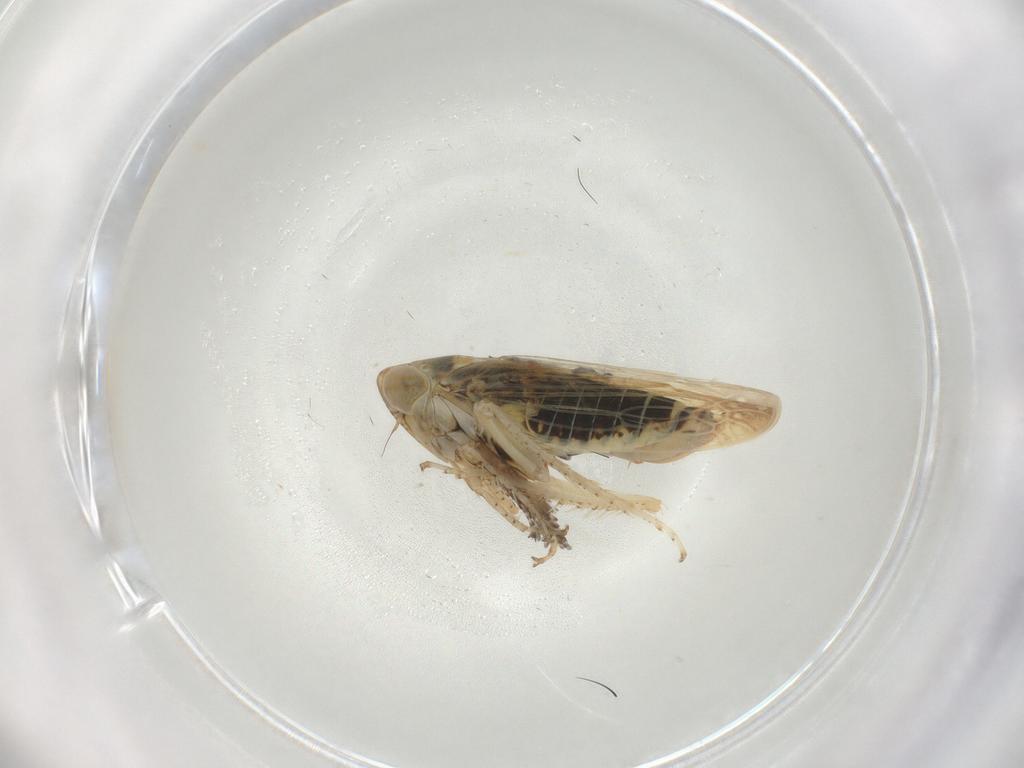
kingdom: Animalia
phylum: Arthropoda
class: Insecta
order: Hemiptera
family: Cicadellidae
